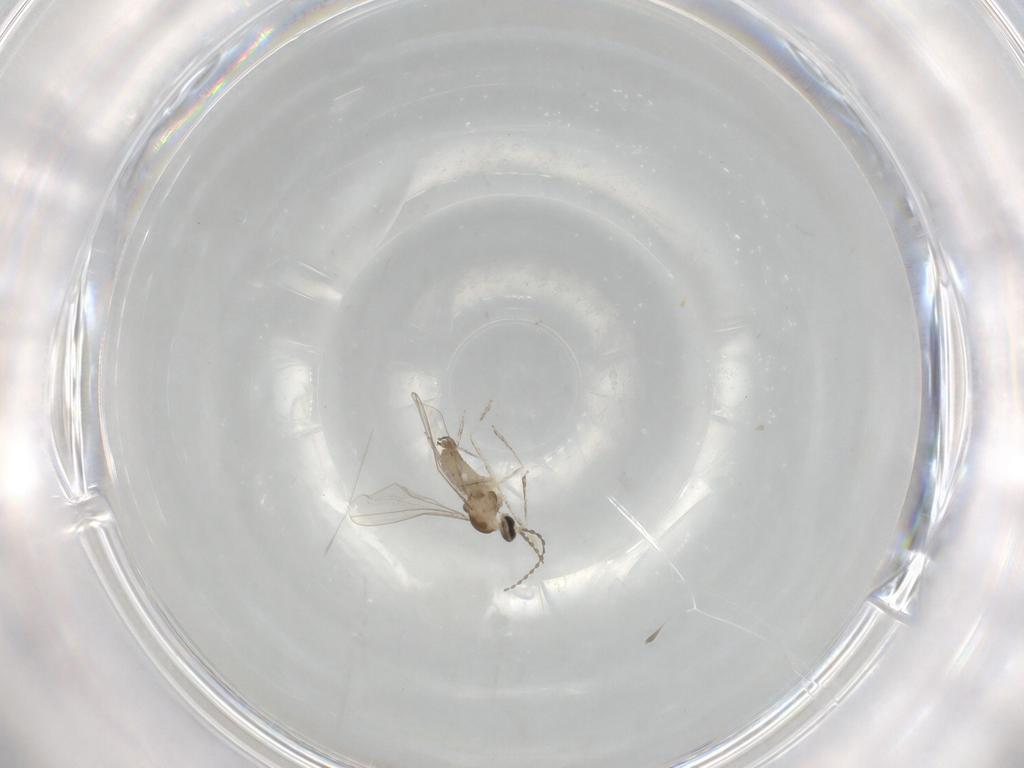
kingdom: Animalia
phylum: Arthropoda
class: Insecta
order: Diptera
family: Cecidomyiidae
